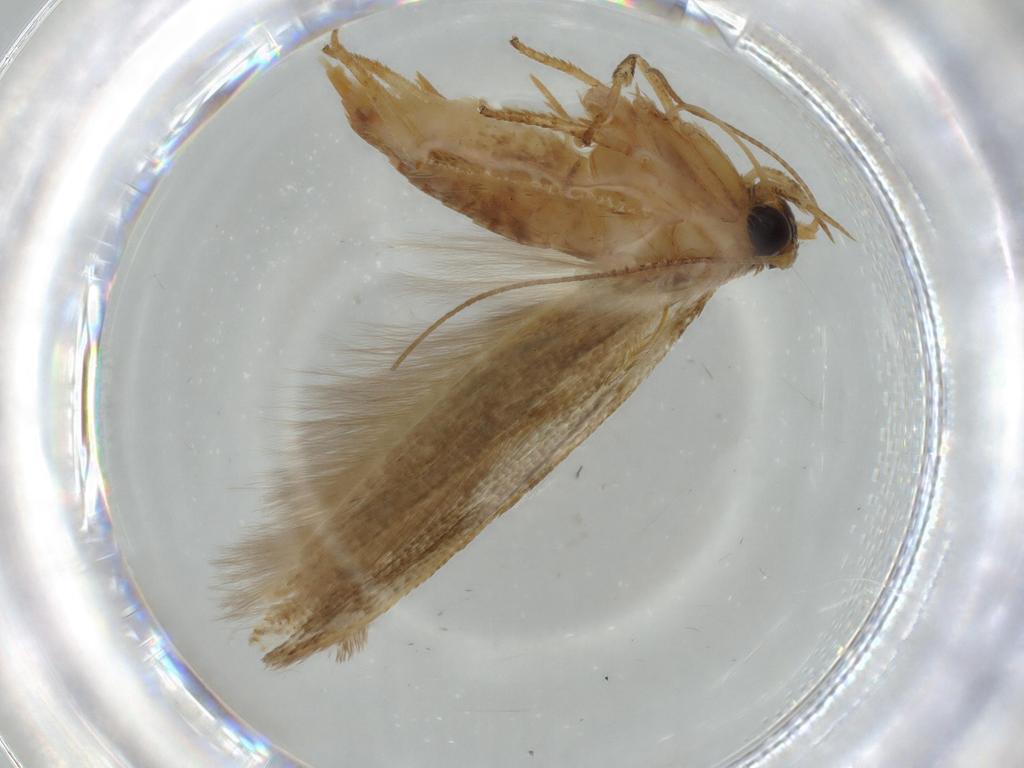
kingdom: Animalia
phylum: Arthropoda
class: Insecta
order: Lepidoptera
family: Coleophoridae
